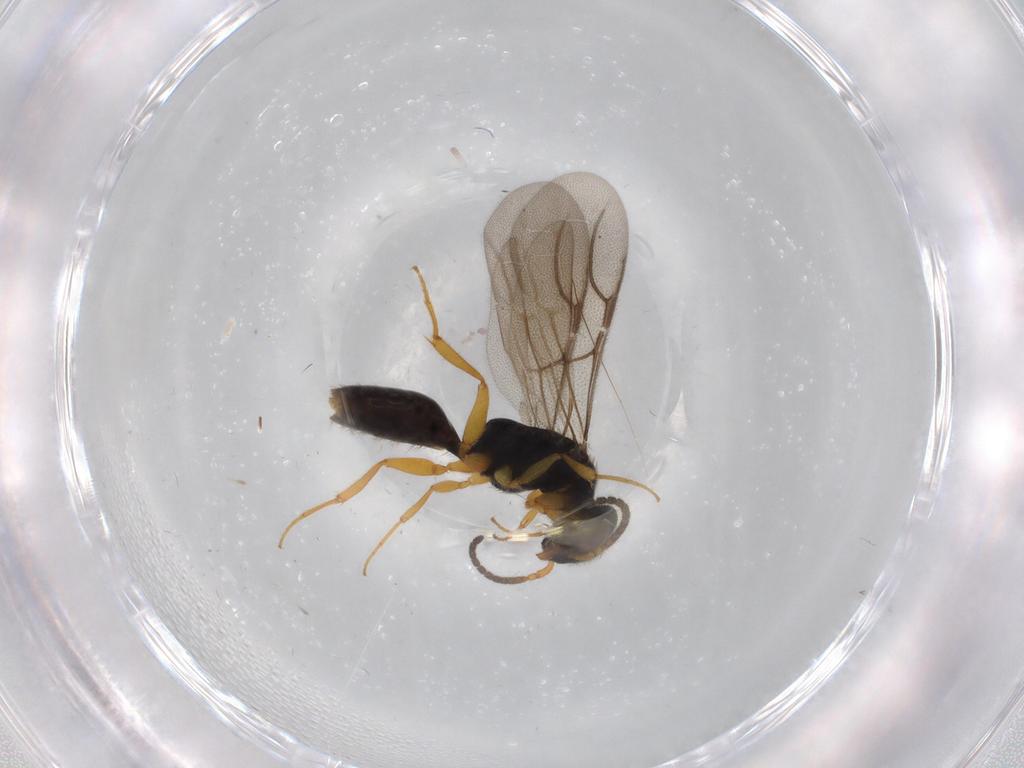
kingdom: Animalia
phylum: Arthropoda
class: Insecta
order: Hymenoptera
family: Bethylidae
